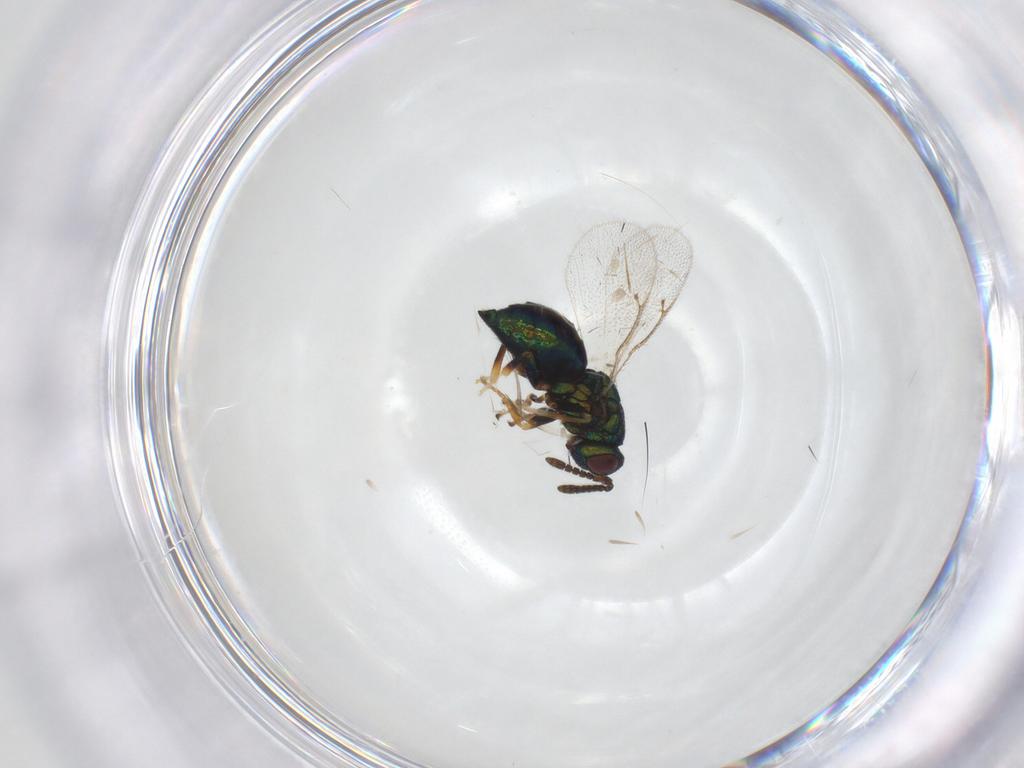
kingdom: Animalia
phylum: Arthropoda
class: Insecta
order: Hymenoptera
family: Pteromalidae
